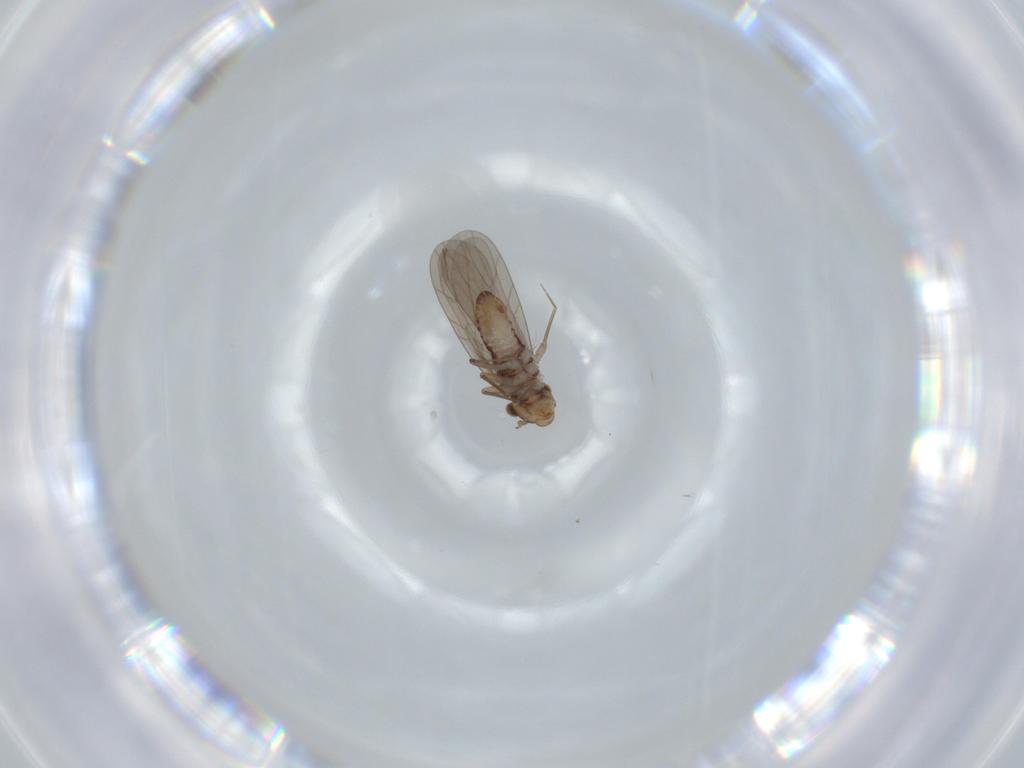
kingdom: Animalia
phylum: Arthropoda
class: Insecta
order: Psocodea
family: Lepidopsocidae
